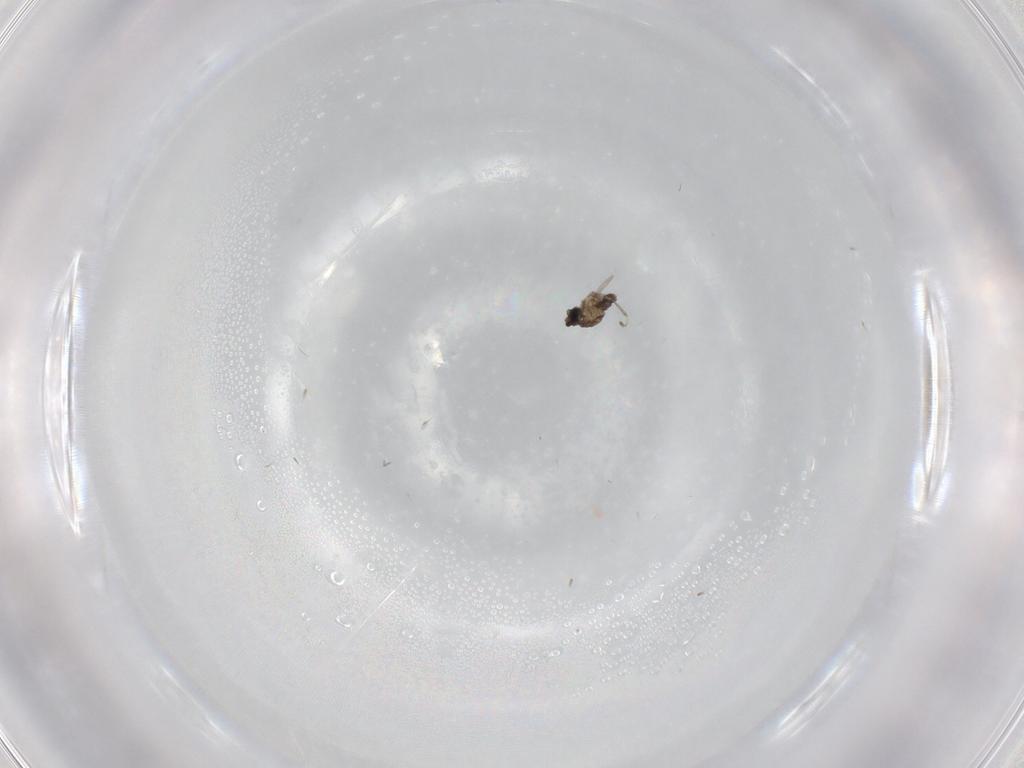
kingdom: Animalia
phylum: Arthropoda
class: Insecta
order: Diptera
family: Cecidomyiidae
